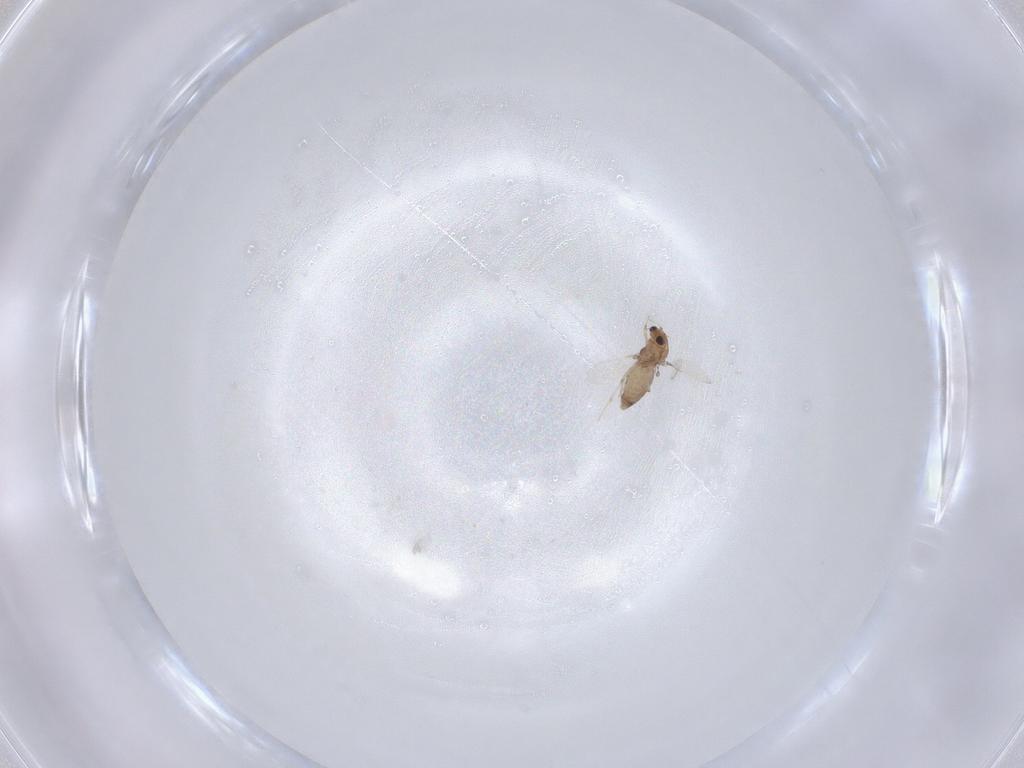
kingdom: Animalia
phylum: Arthropoda
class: Insecta
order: Diptera
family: Chironomidae
